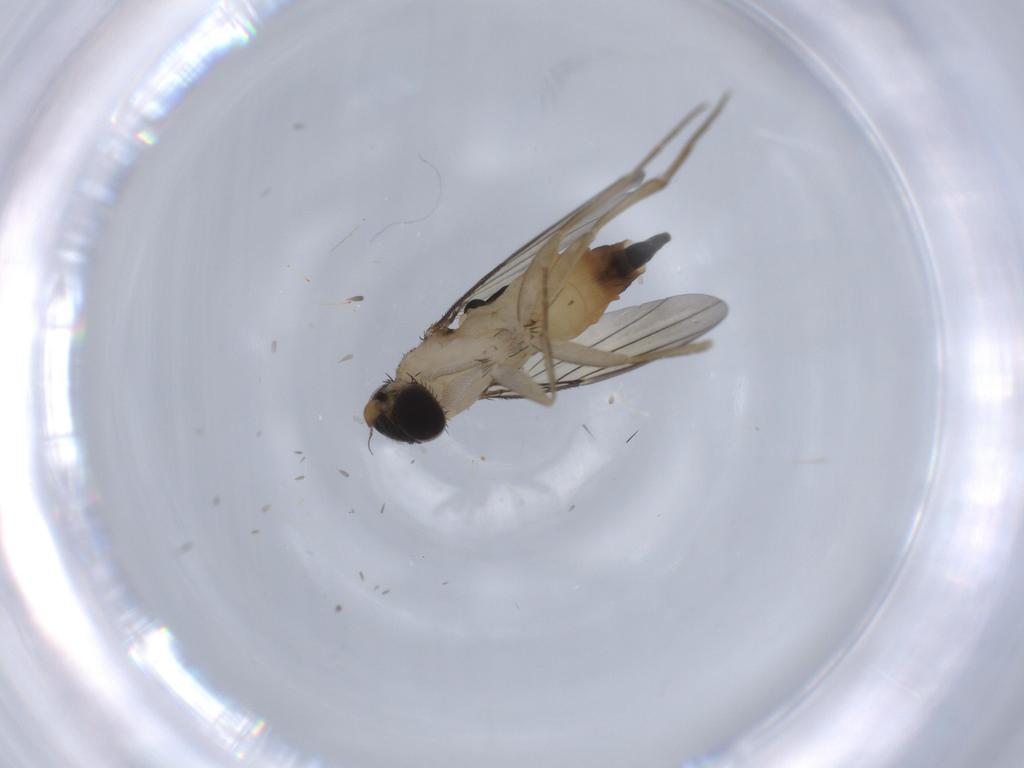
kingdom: Animalia
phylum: Arthropoda
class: Insecta
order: Diptera
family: Phoridae
